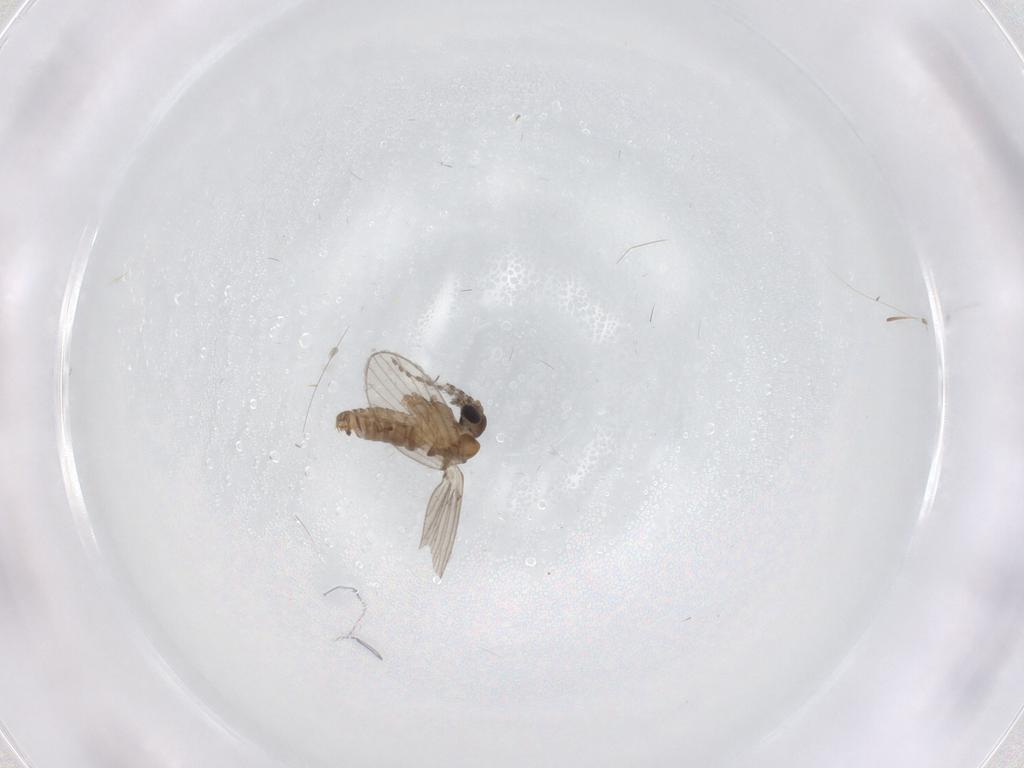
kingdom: Animalia
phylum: Arthropoda
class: Insecta
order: Diptera
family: Psychodidae
